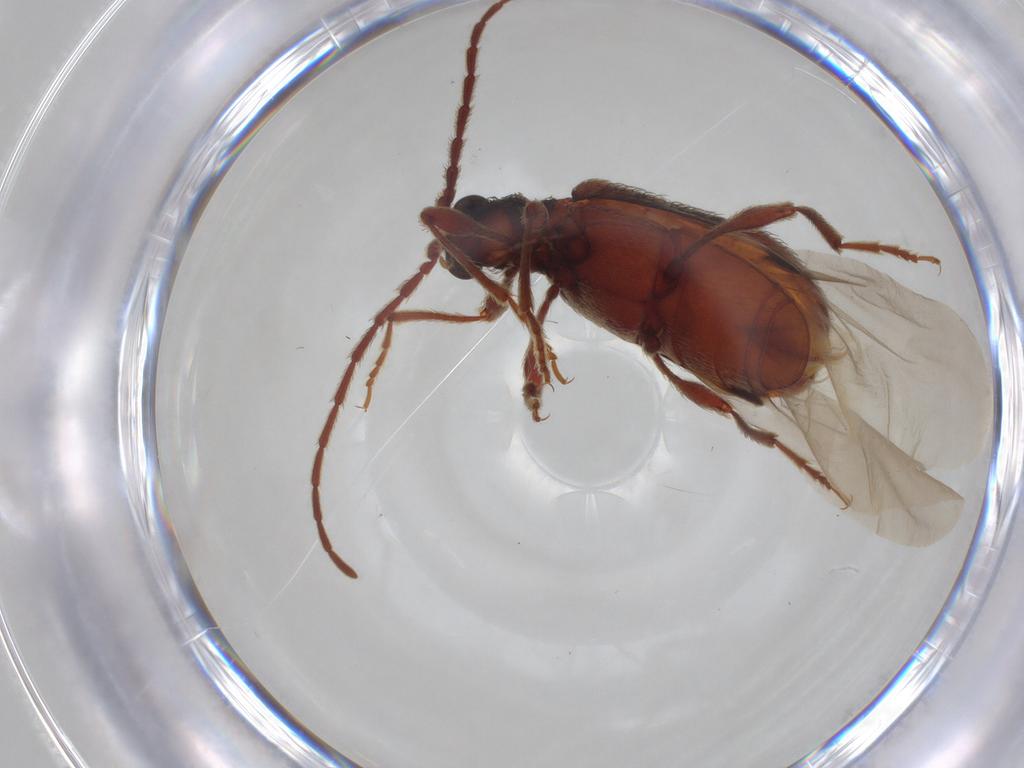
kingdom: Animalia
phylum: Arthropoda
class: Insecta
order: Coleoptera
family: Ptinidae
